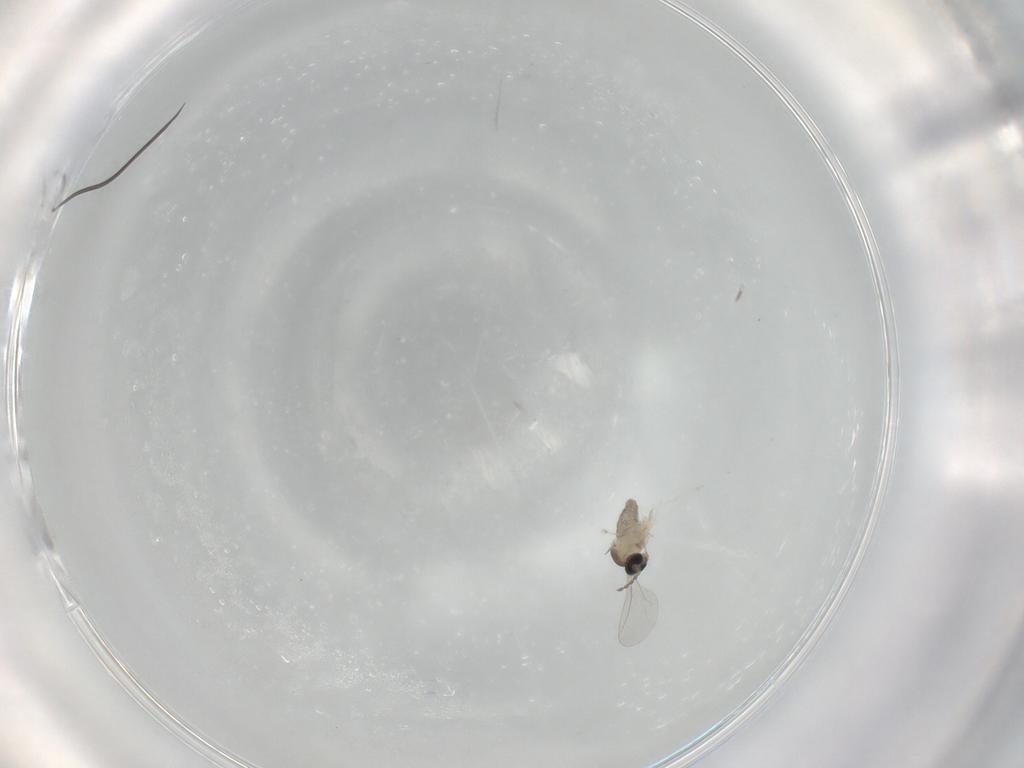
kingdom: Animalia
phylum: Arthropoda
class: Insecta
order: Diptera
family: Cecidomyiidae
